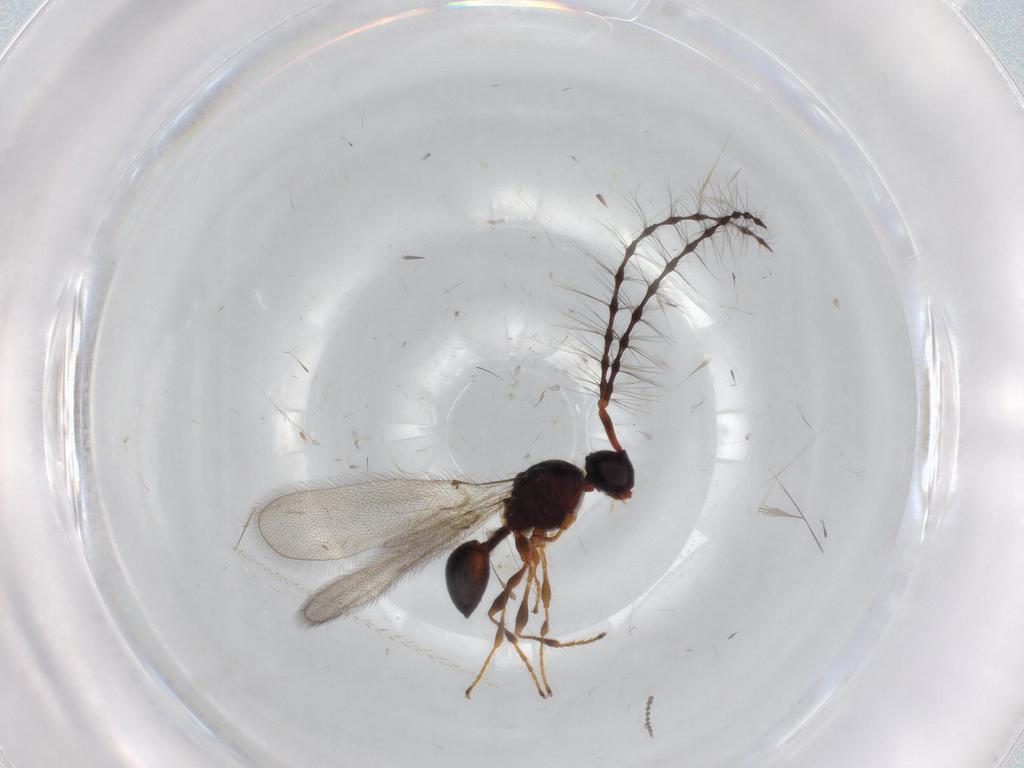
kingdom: Animalia
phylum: Arthropoda
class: Insecta
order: Hymenoptera
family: Diapriidae
